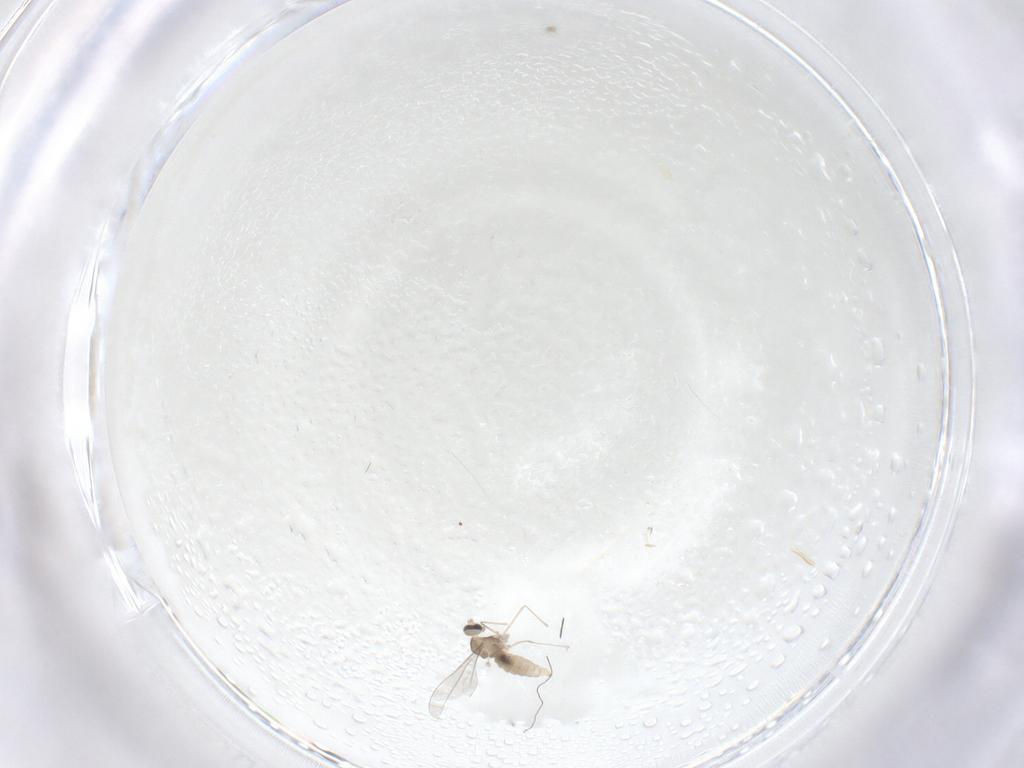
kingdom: Animalia
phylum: Arthropoda
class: Insecta
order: Diptera
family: Cecidomyiidae
